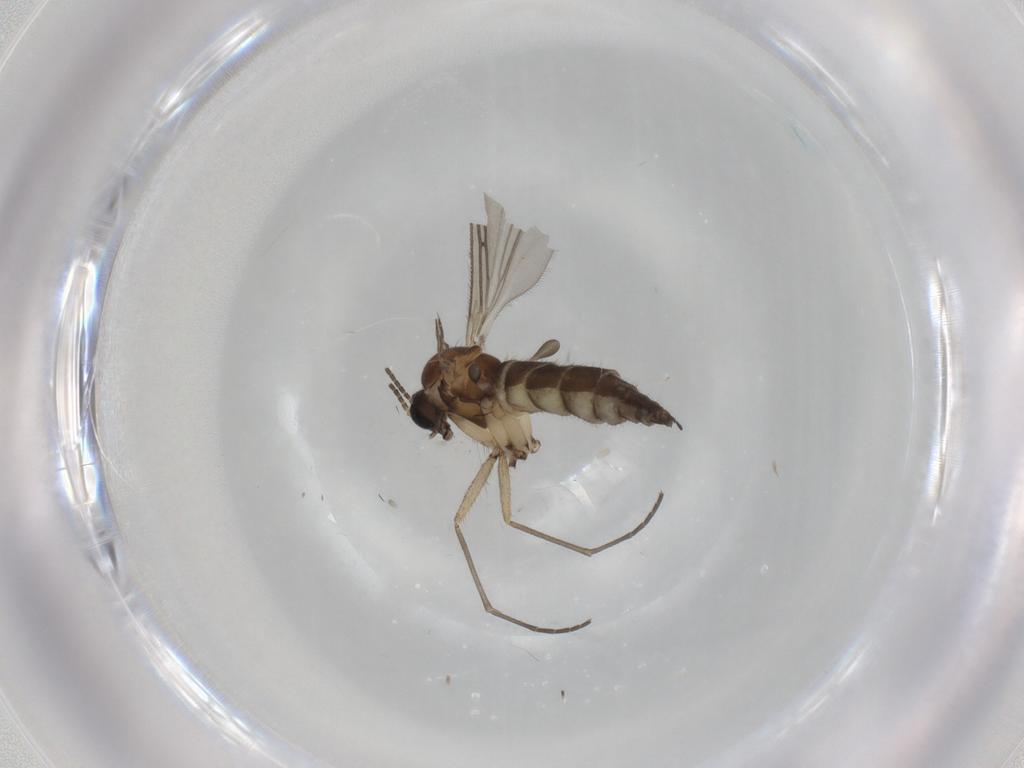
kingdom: Animalia
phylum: Arthropoda
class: Insecta
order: Diptera
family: Sciaridae
